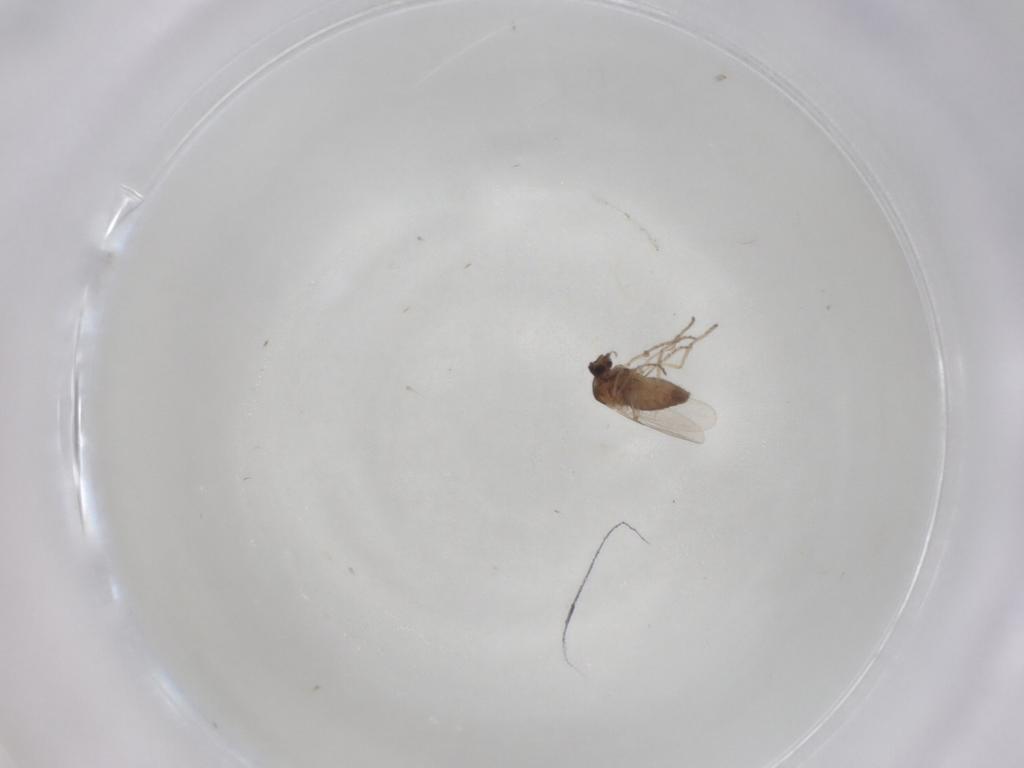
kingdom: Animalia
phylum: Arthropoda
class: Insecta
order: Diptera
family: Ceratopogonidae
